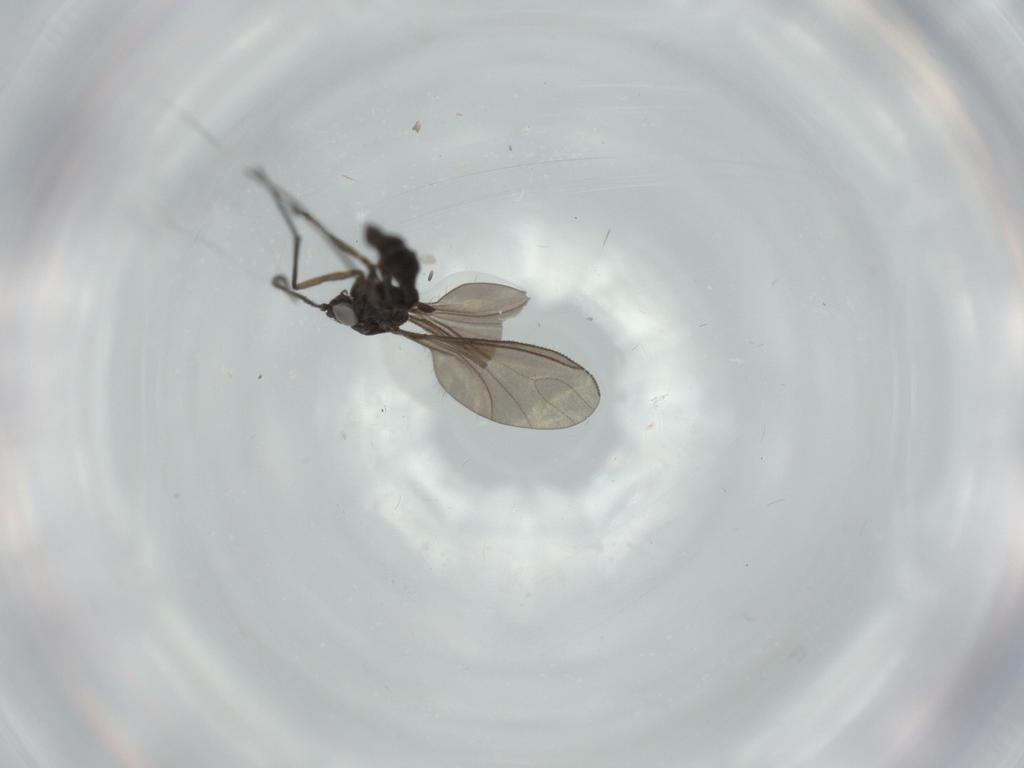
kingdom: Animalia
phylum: Arthropoda
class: Insecta
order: Diptera
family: Sciaridae
